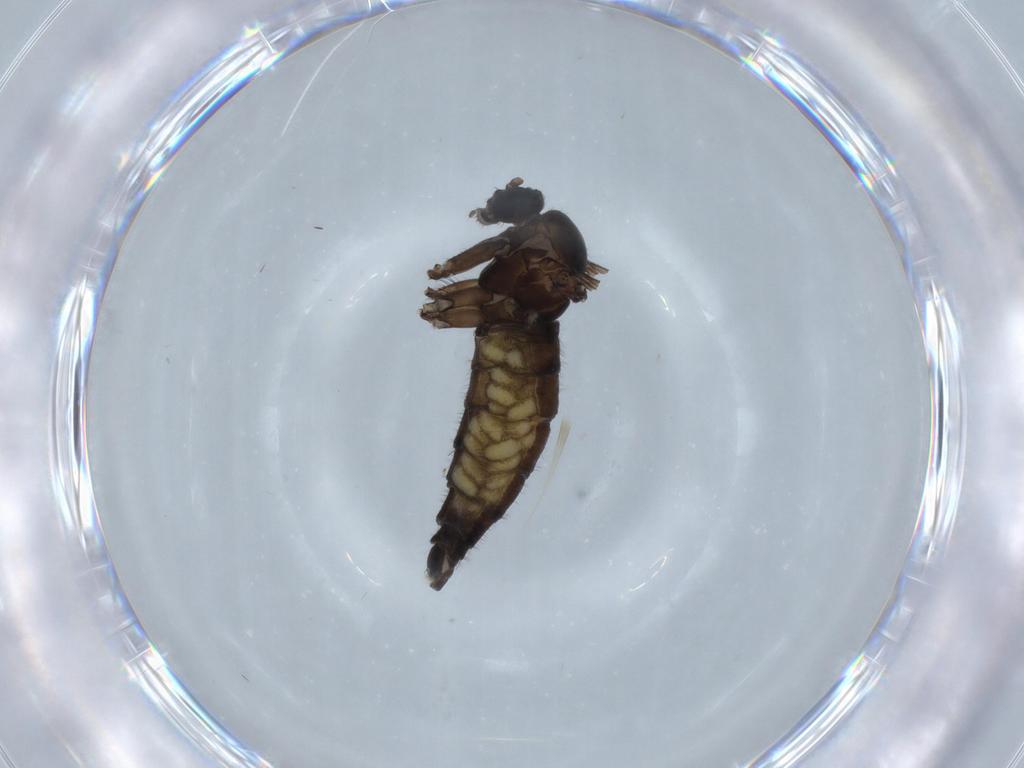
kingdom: Animalia
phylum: Arthropoda
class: Insecta
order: Diptera
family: Sciaridae
